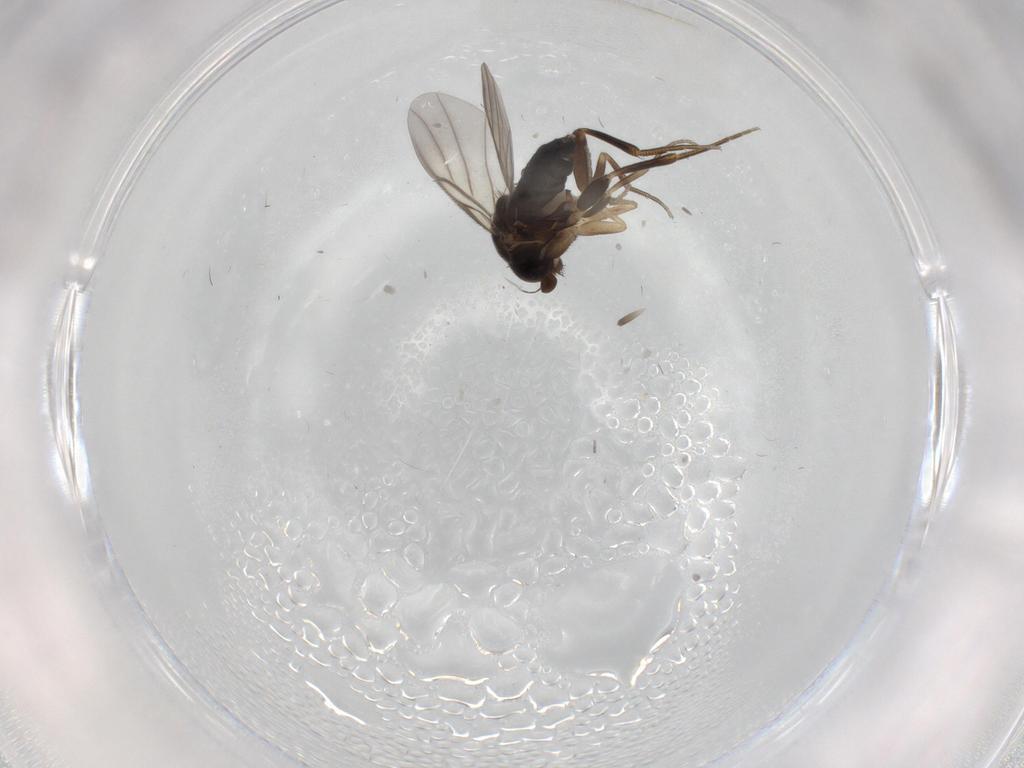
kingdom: Animalia
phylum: Arthropoda
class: Insecta
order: Diptera
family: Phoridae
